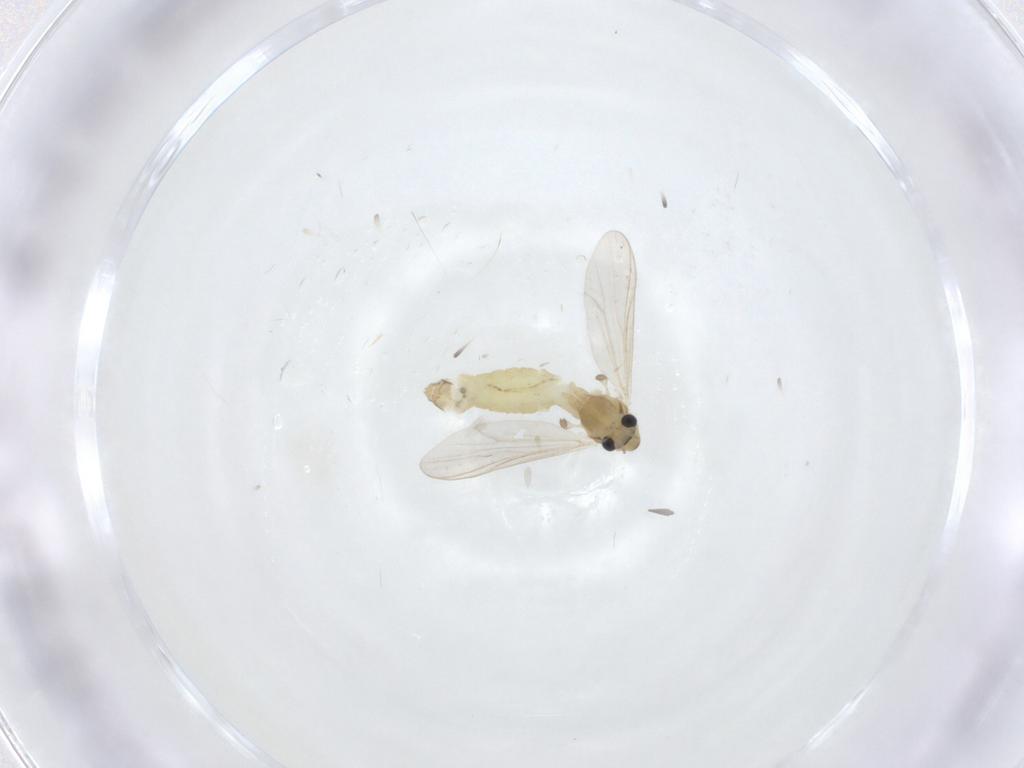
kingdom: Animalia
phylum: Arthropoda
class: Insecta
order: Diptera
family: Chironomidae
